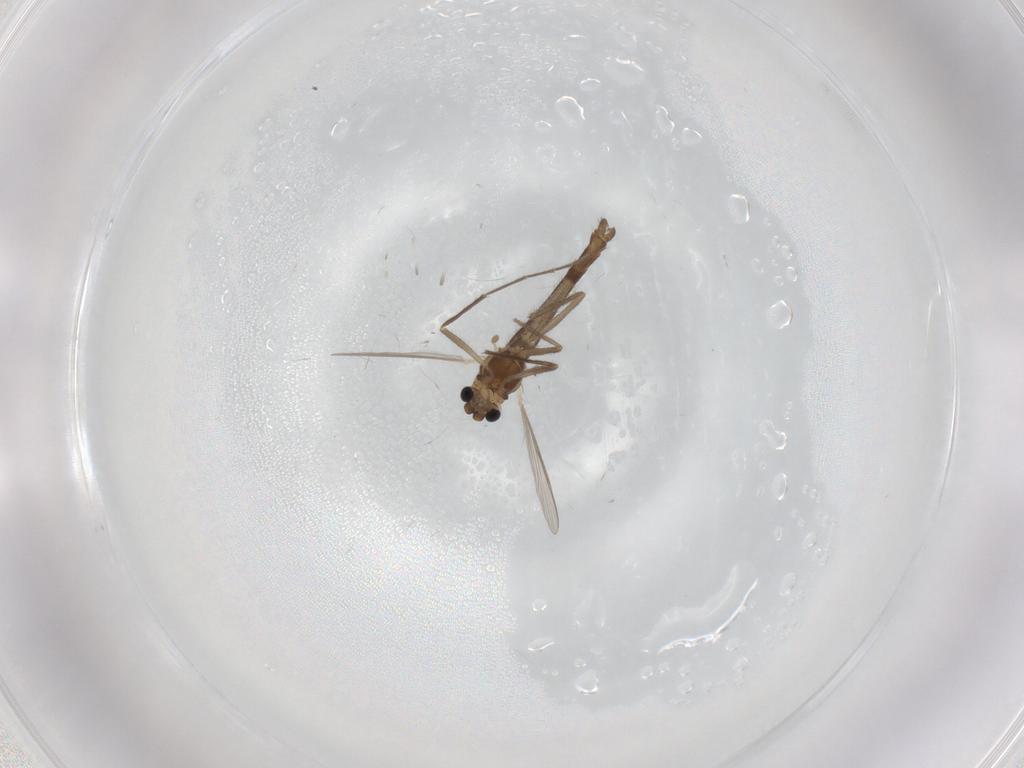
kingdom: Animalia
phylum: Arthropoda
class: Insecta
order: Diptera
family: Chironomidae
